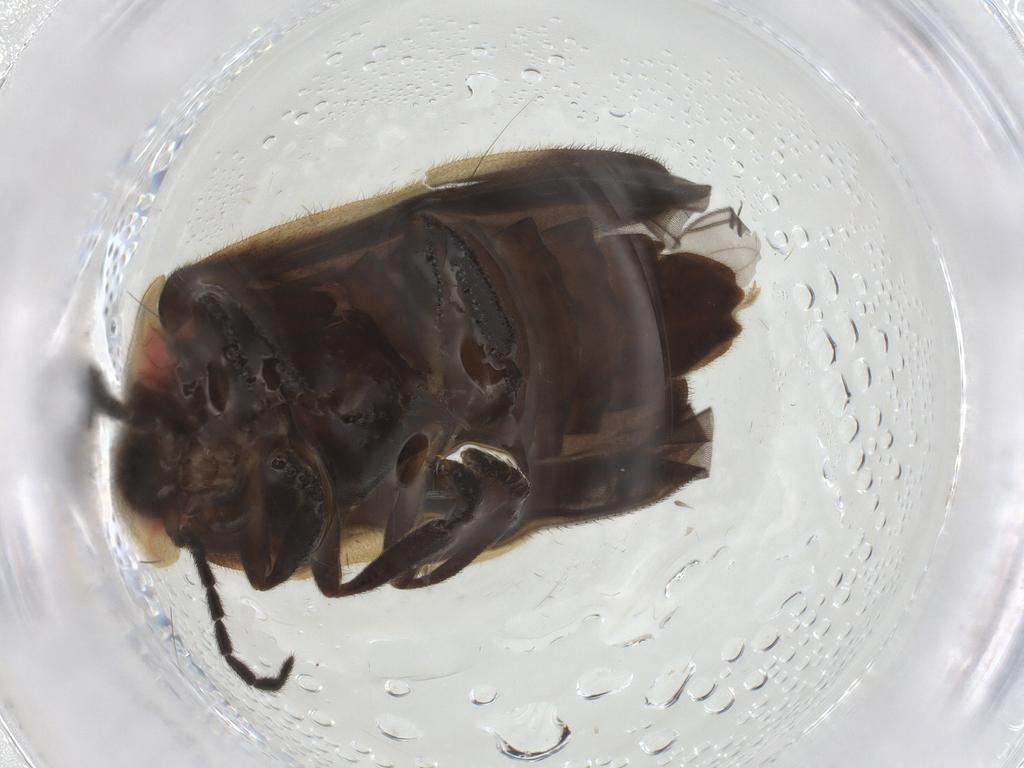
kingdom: Animalia
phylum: Arthropoda
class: Insecta
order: Coleoptera
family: Lampyridae
